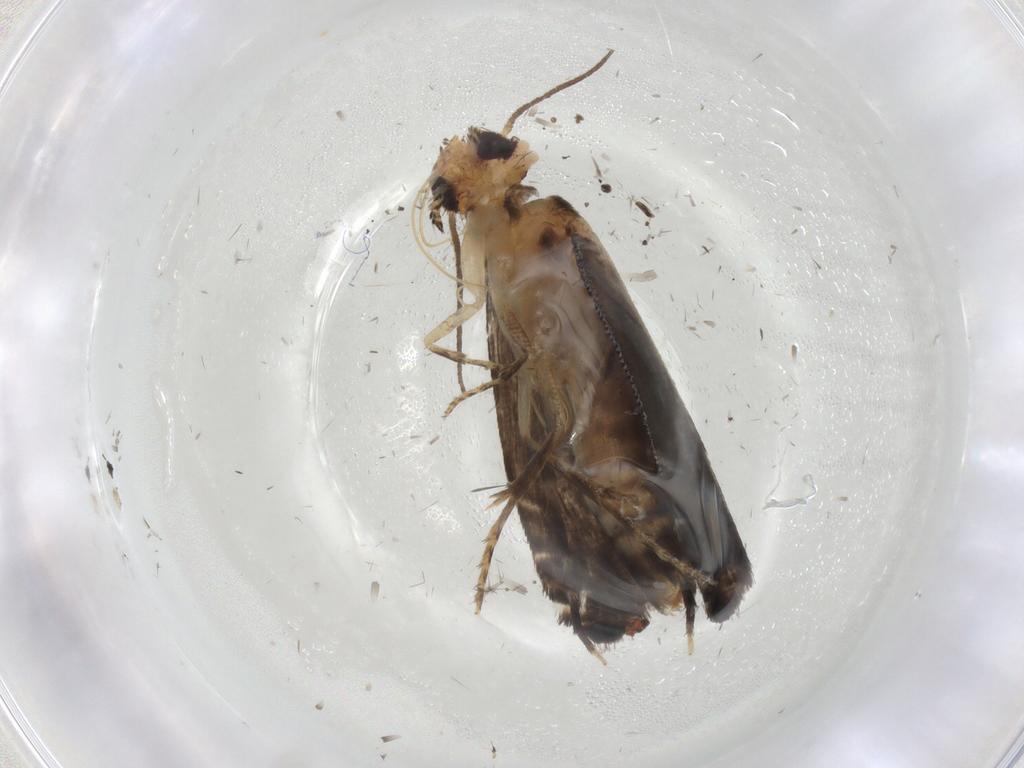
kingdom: Animalia
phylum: Arthropoda
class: Insecta
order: Lepidoptera
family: Glyphipterigidae
